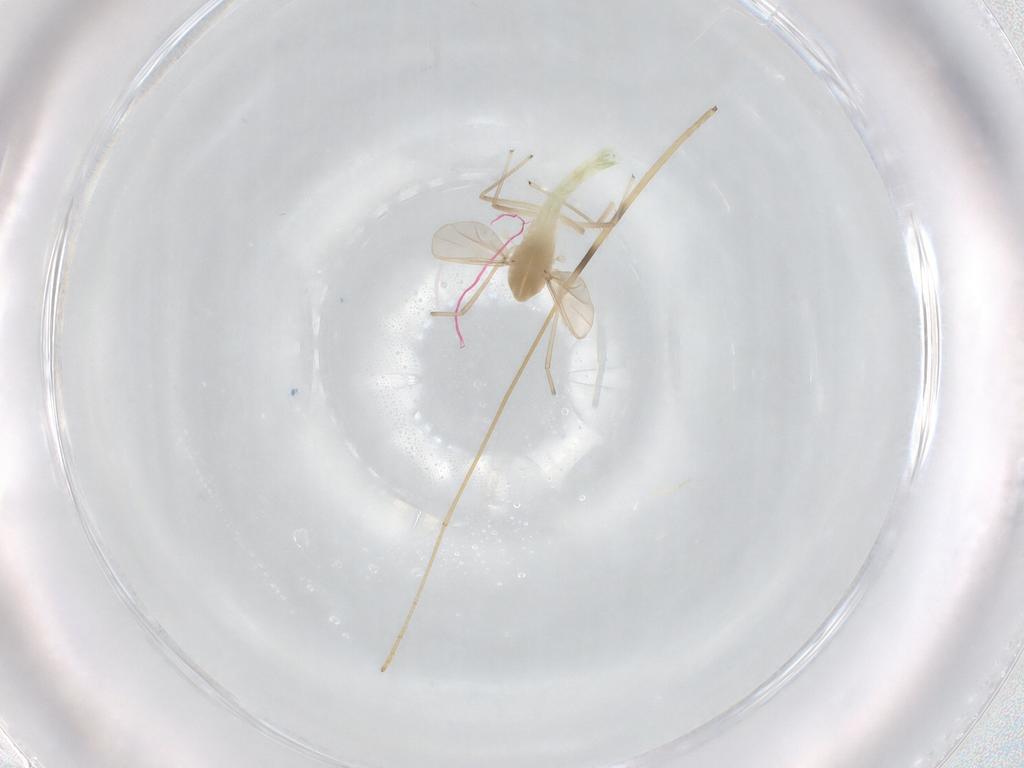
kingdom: Animalia
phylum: Arthropoda
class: Insecta
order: Diptera
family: Chironomidae
